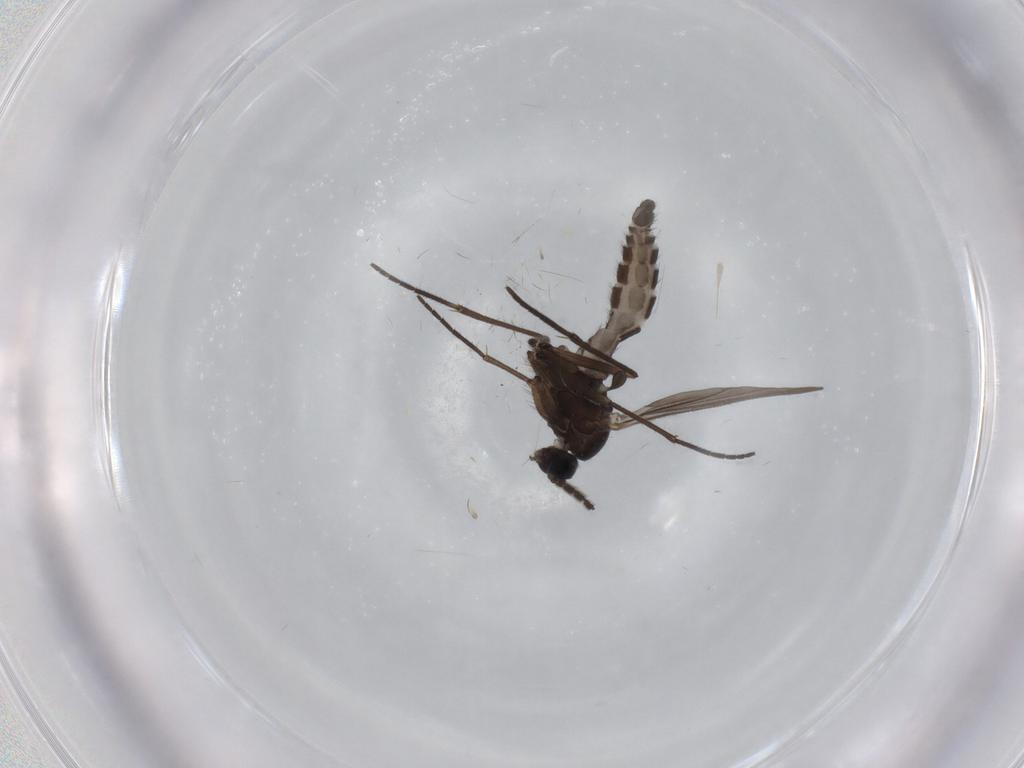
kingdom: Animalia
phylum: Arthropoda
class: Insecta
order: Diptera
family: Sciaridae
